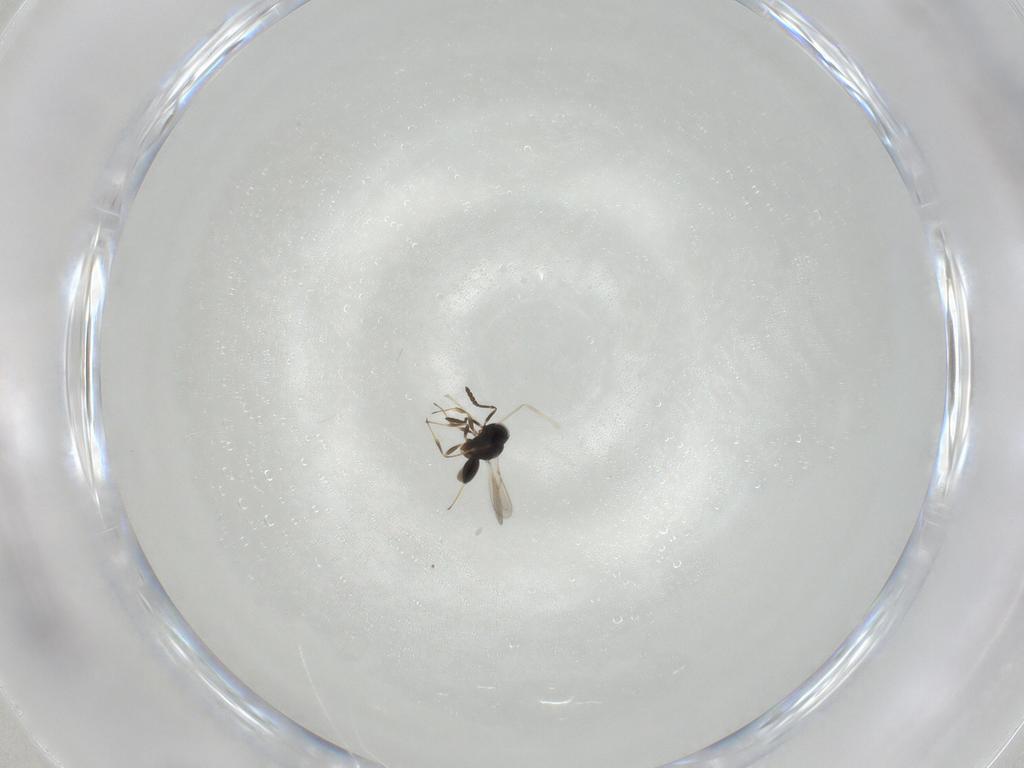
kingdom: Animalia
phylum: Arthropoda
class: Insecta
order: Hymenoptera
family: Scelionidae
